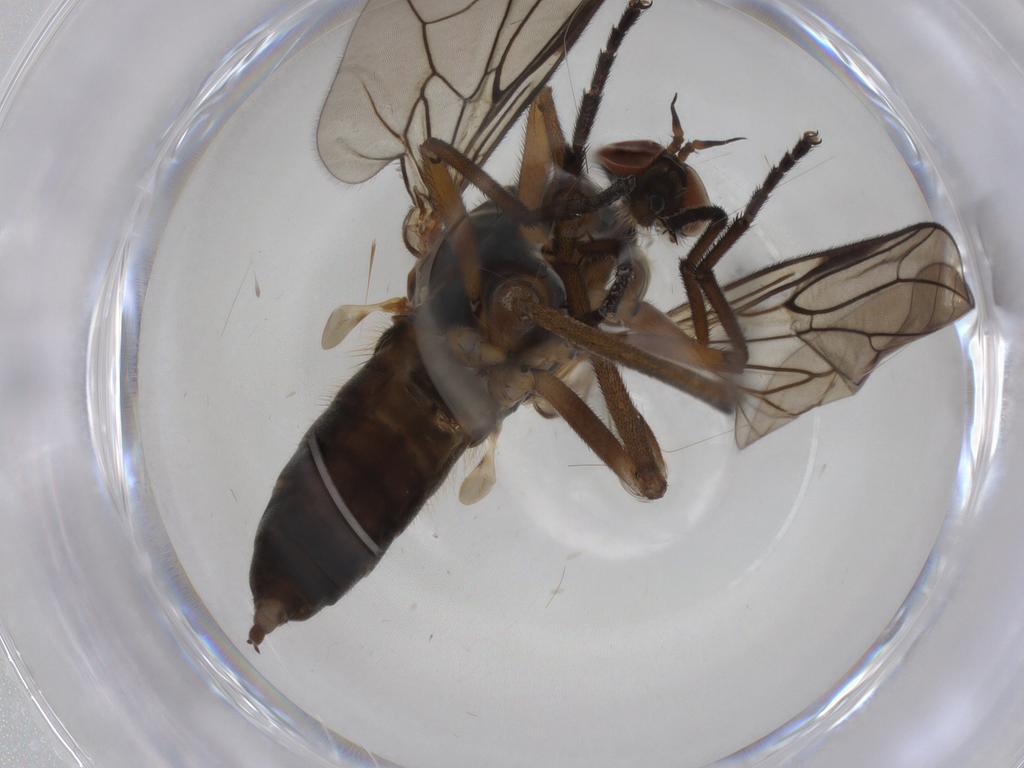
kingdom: Animalia
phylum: Arthropoda
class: Insecta
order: Diptera
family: Empididae
